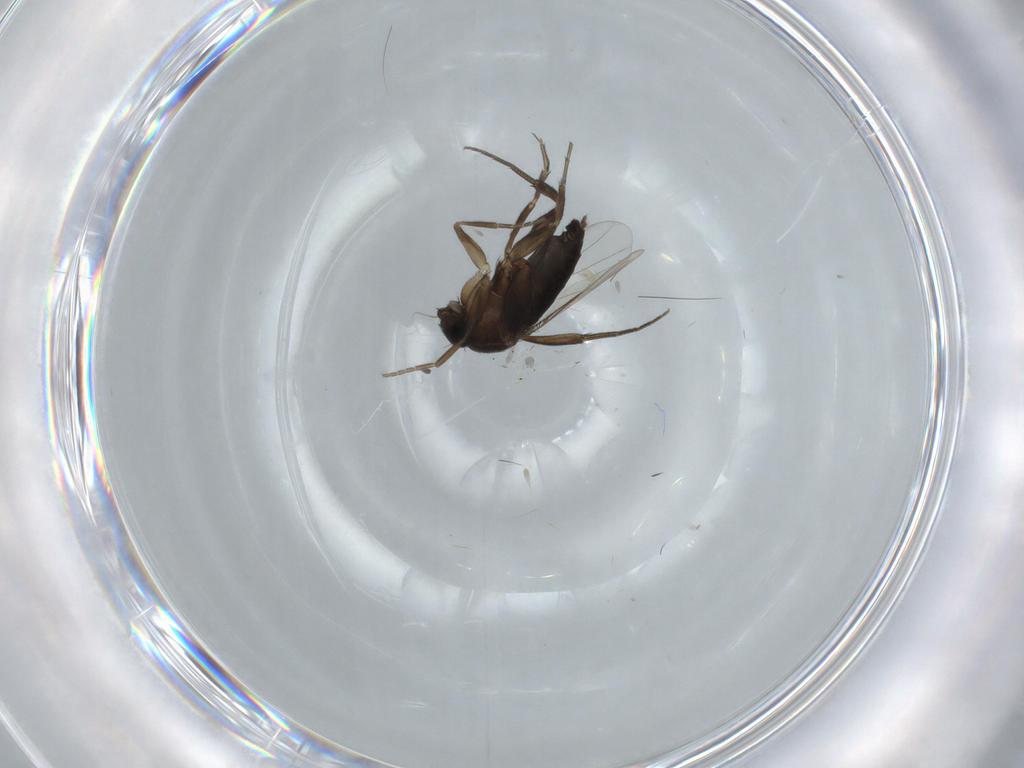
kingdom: Animalia
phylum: Arthropoda
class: Insecta
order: Diptera
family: Phoridae
